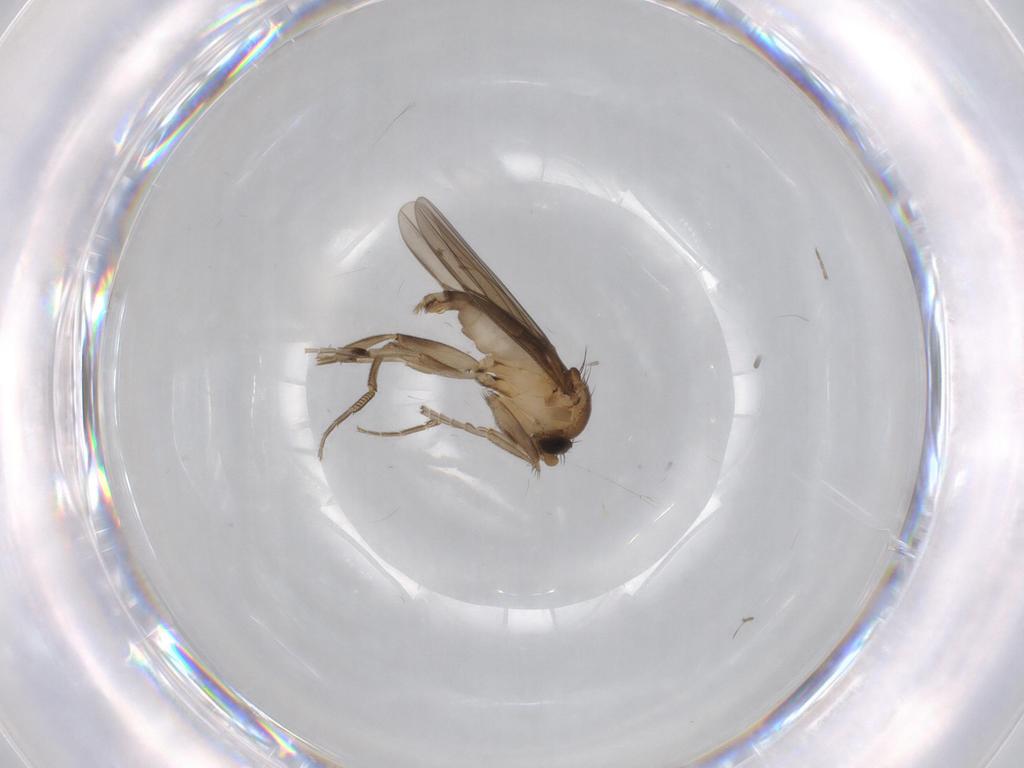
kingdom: Animalia
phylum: Arthropoda
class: Insecta
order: Diptera
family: Phoridae
